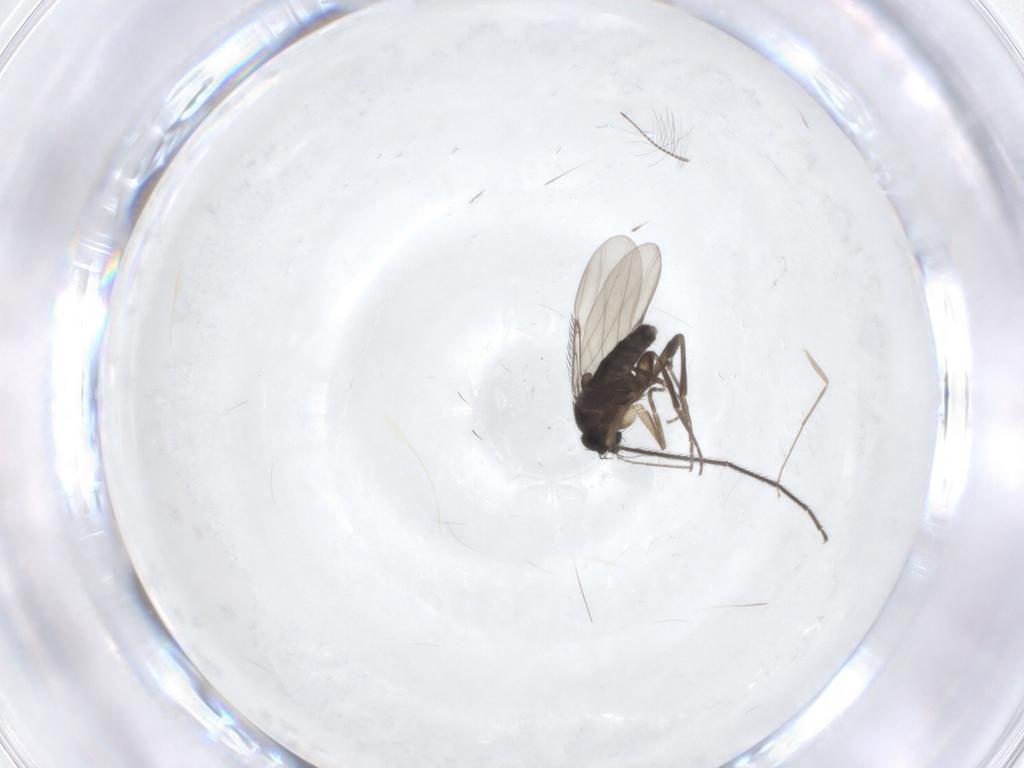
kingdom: Animalia
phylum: Arthropoda
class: Insecta
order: Diptera
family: Phoridae
